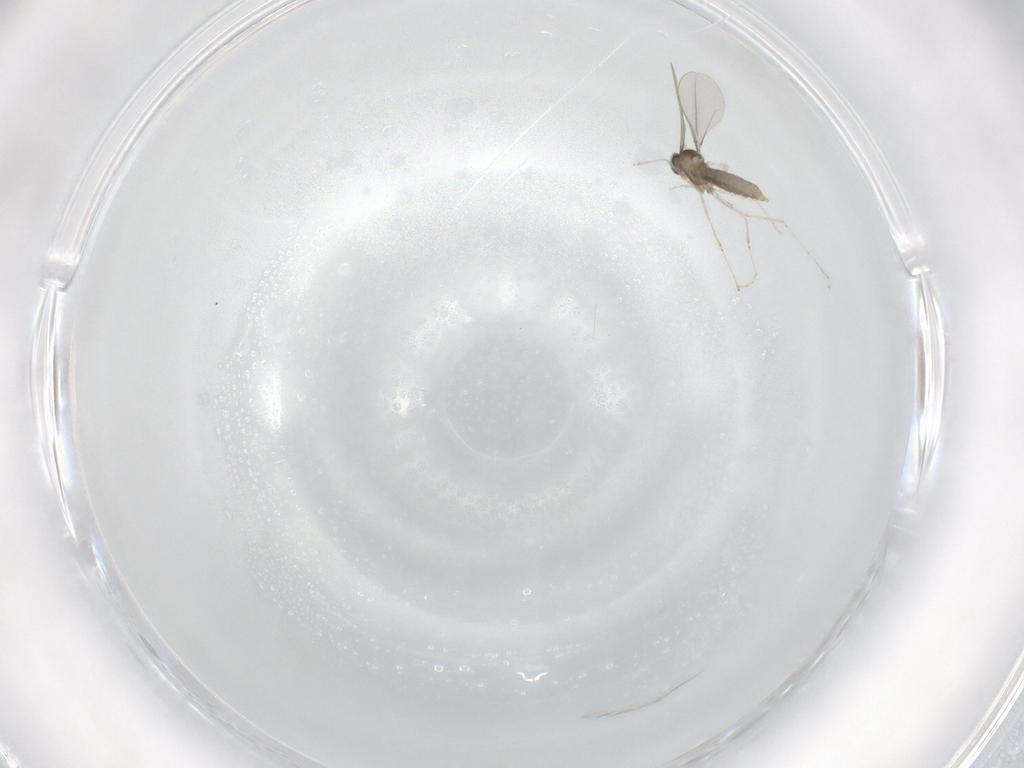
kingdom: Animalia
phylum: Arthropoda
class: Insecta
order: Diptera
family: Cecidomyiidae
